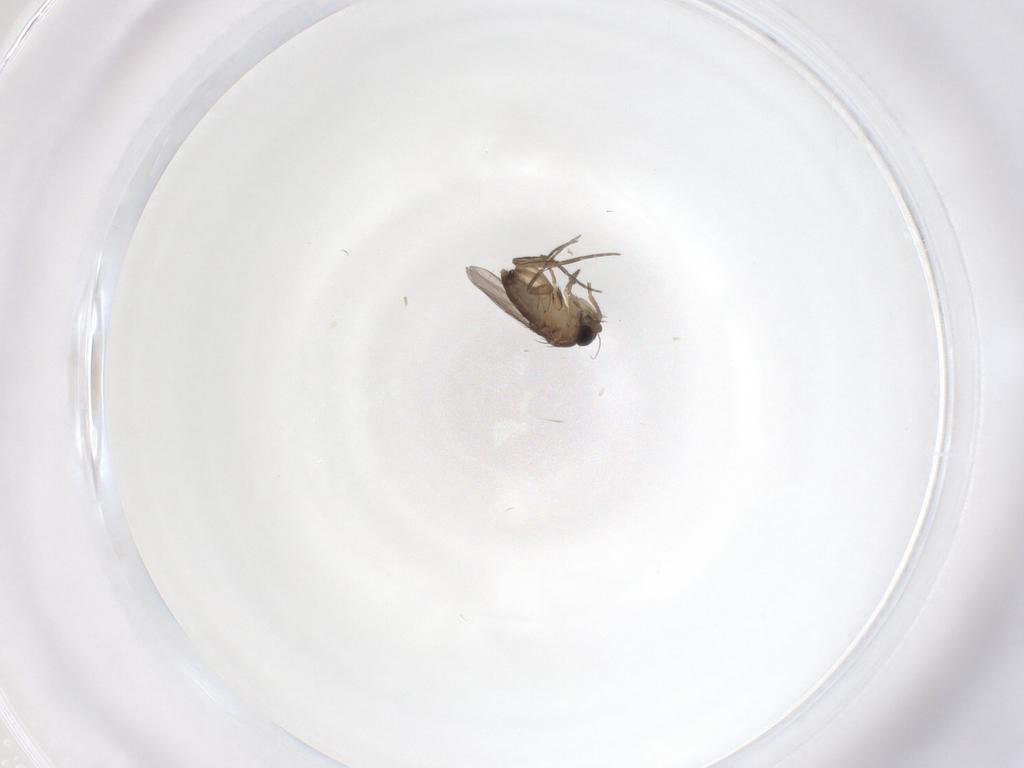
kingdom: Animalia
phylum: Arthropoda
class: Insecta
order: Diptera
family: Phoridae
